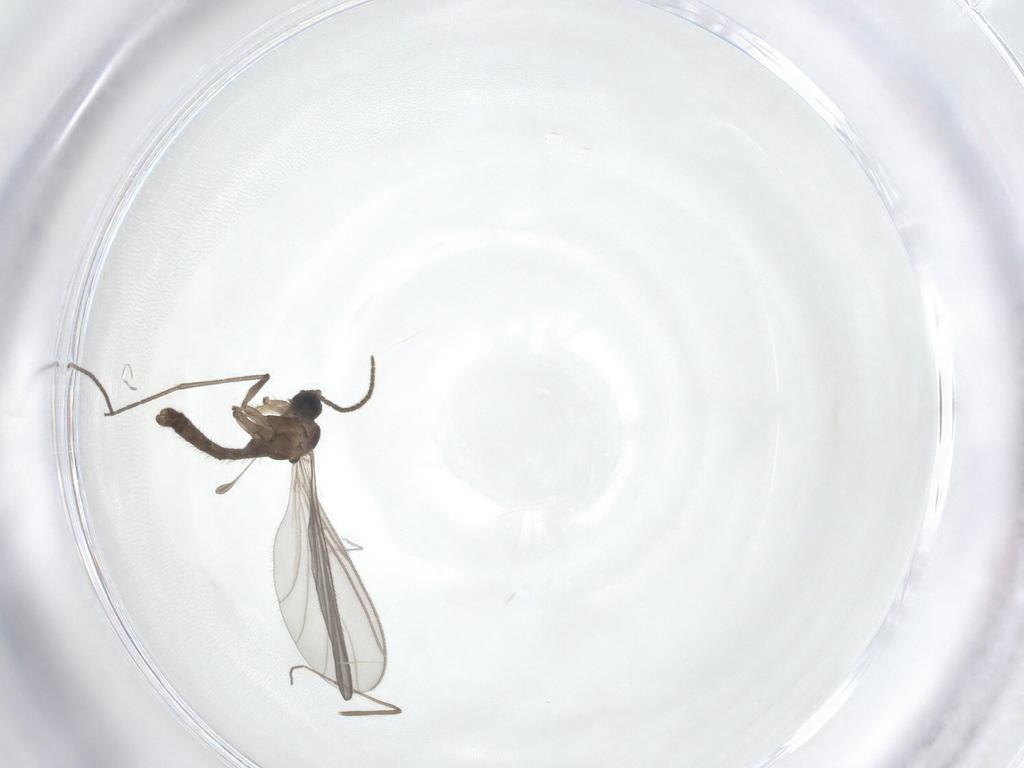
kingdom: Animalia
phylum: Arthropoda
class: Insecta
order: Diptera
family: Sciaridae
